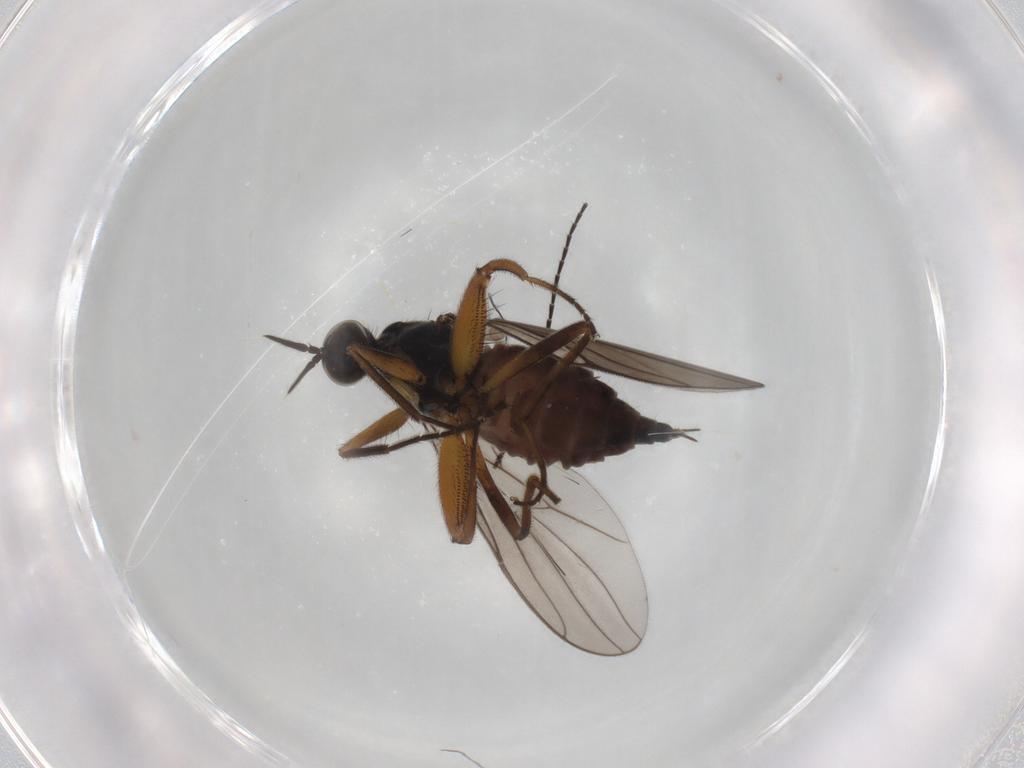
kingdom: Animalia
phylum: Arthropoda
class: Insecta
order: Diptera
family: Hybotidae
